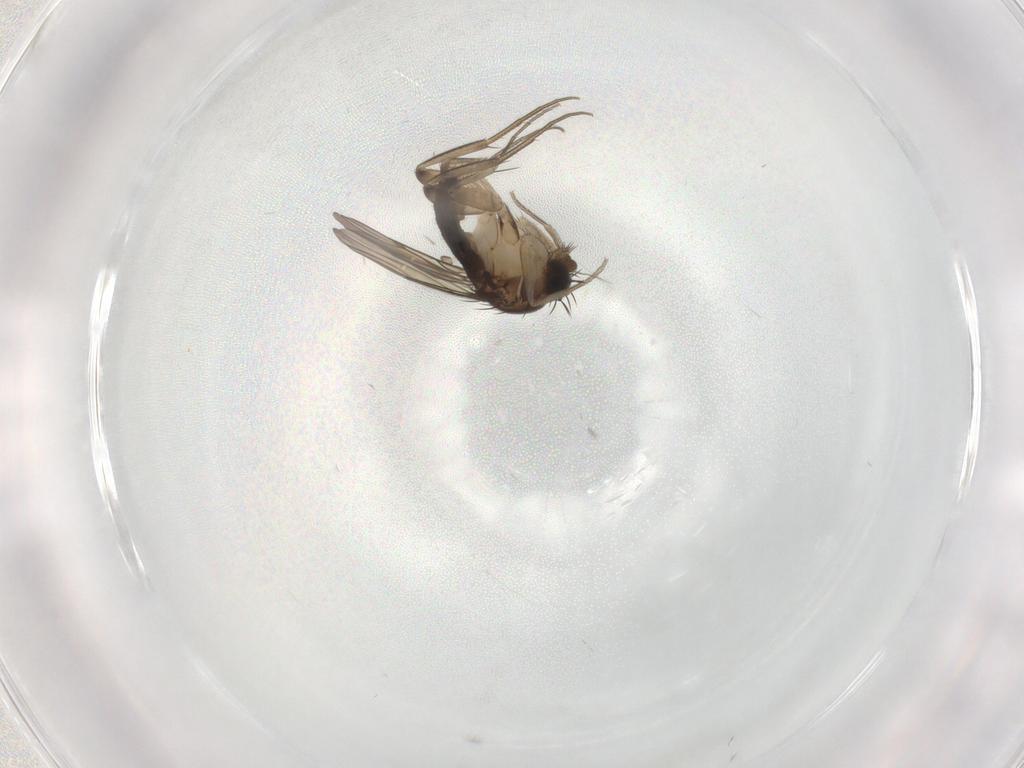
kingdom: Animalia
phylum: Arthropoda
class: Insecta
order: Diptera
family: Phoridae
